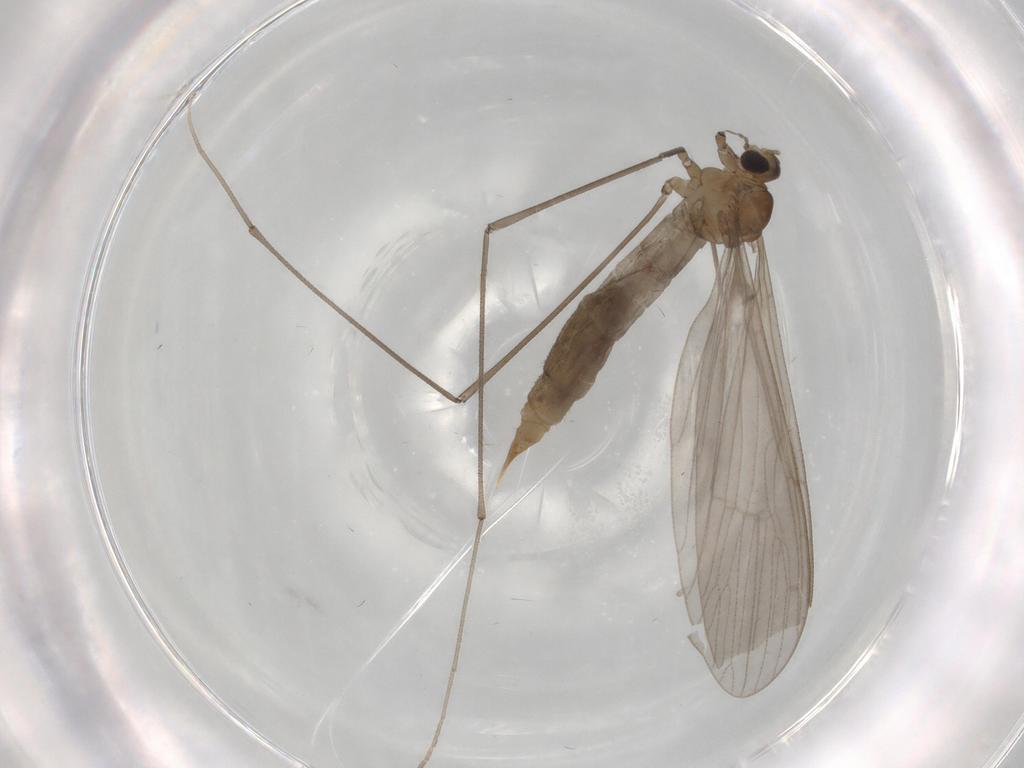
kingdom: Animalia
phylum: Arthropoda
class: Insecta
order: Diptera
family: Limoniidae
